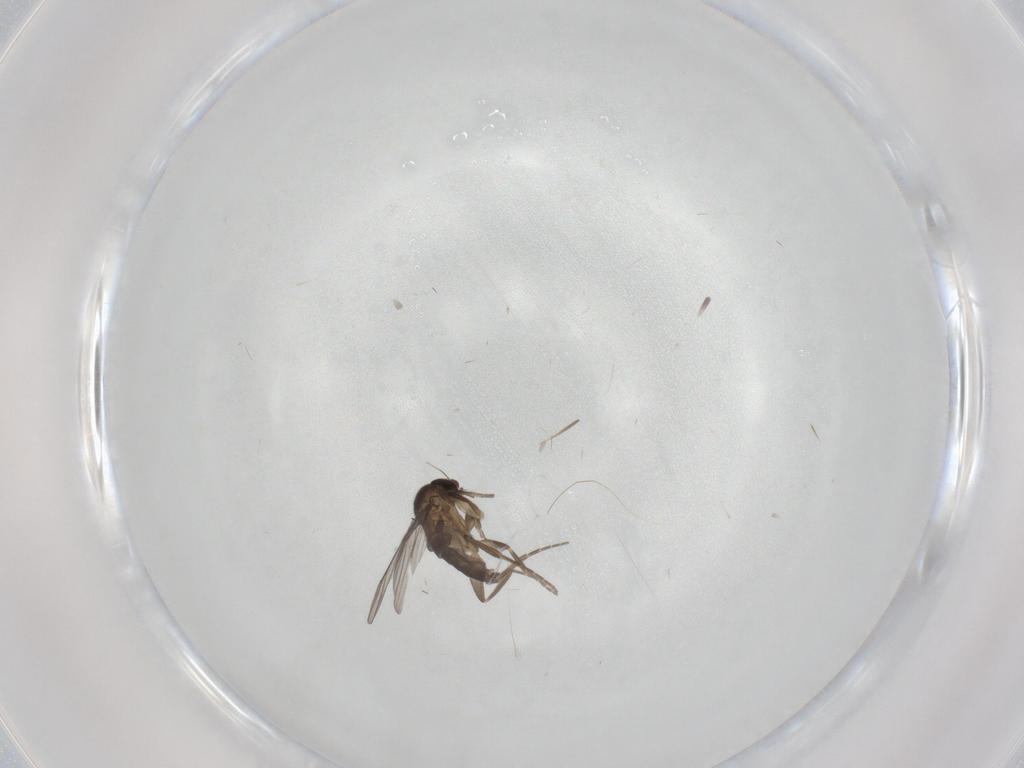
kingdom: Animalia
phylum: Arthropoda
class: Insecta
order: Diptera
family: Phoridae
